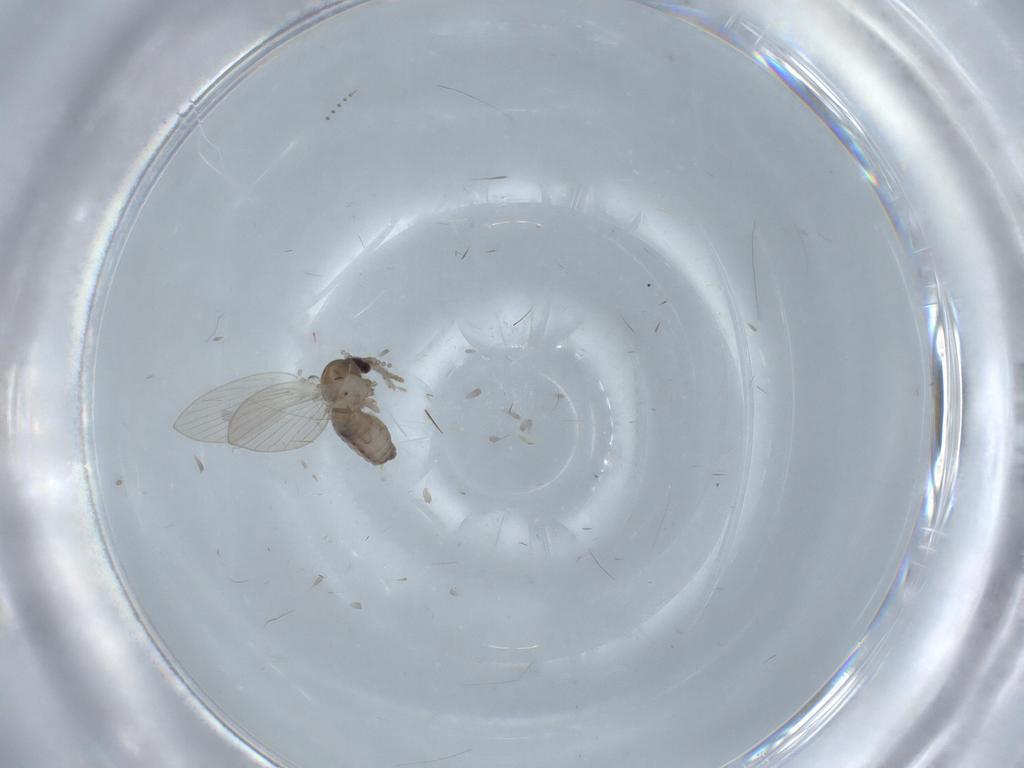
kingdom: Animalia
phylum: Arthropoda
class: Insecta
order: Diptera
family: Psychodidae
